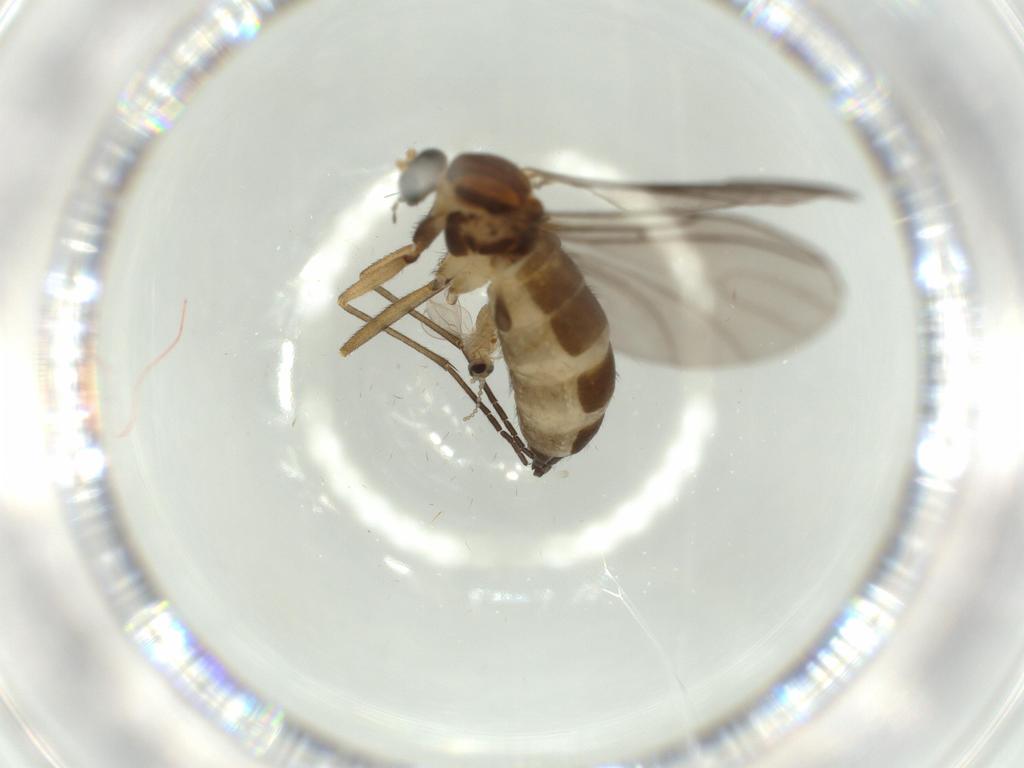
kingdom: Animalia
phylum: Arthropoda
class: Insecta
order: Diptera
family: Sciaridae
